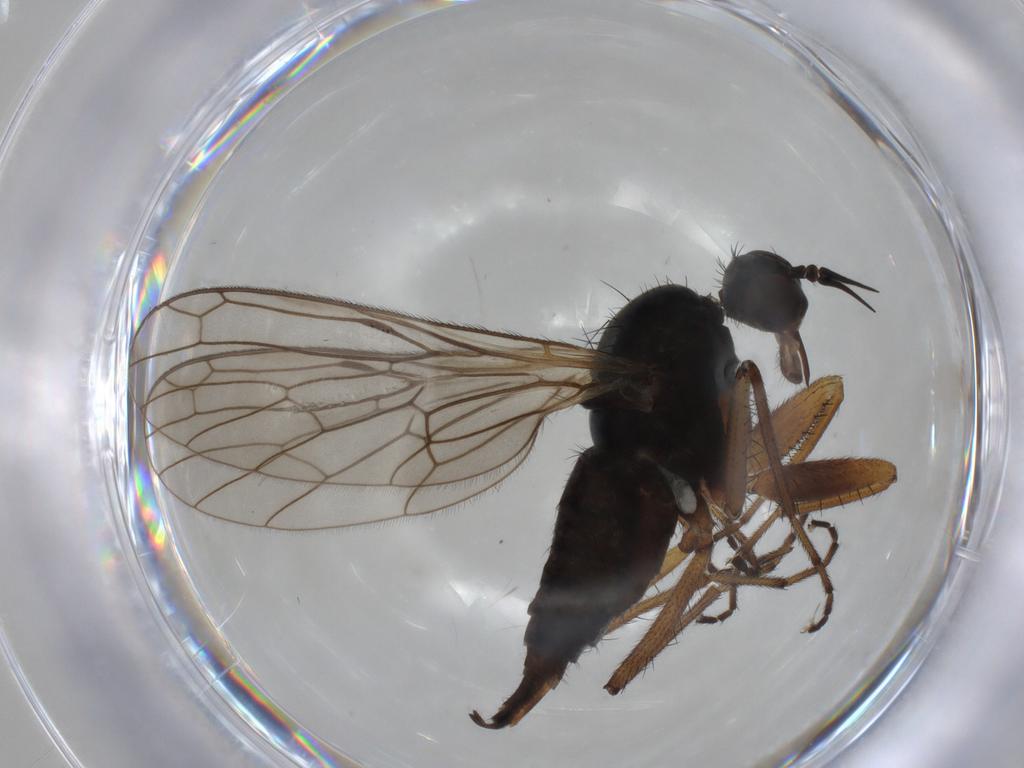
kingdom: Animalia
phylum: Arthropoda
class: Insecta
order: Diptera
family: Empididae
